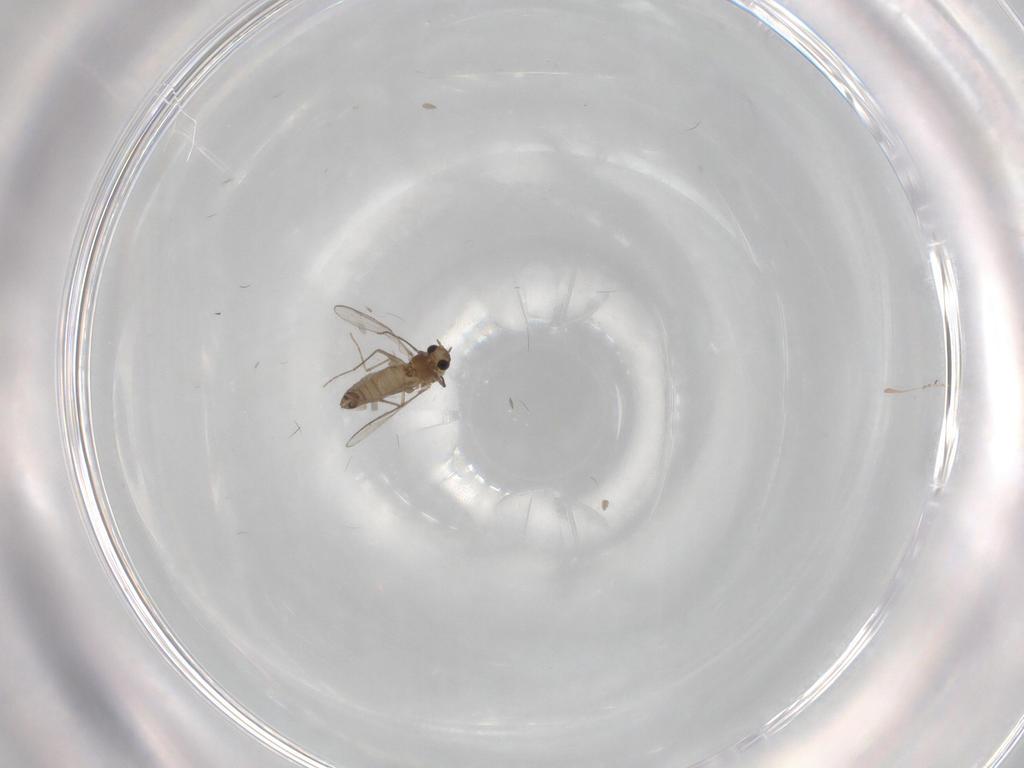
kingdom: Animalia
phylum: Arthropoda
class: Insecta
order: Diptera
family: Chironomidae
